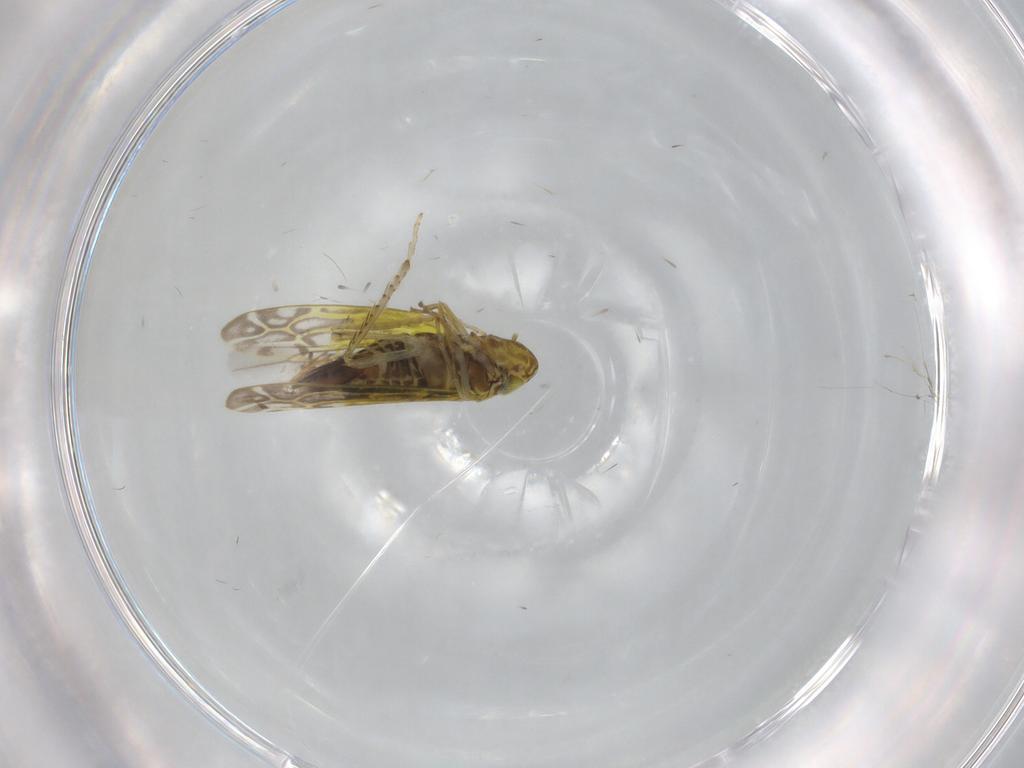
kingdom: Animalia
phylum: Arthropoda
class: Insecta
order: Hemiptera
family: Cicadellidae
